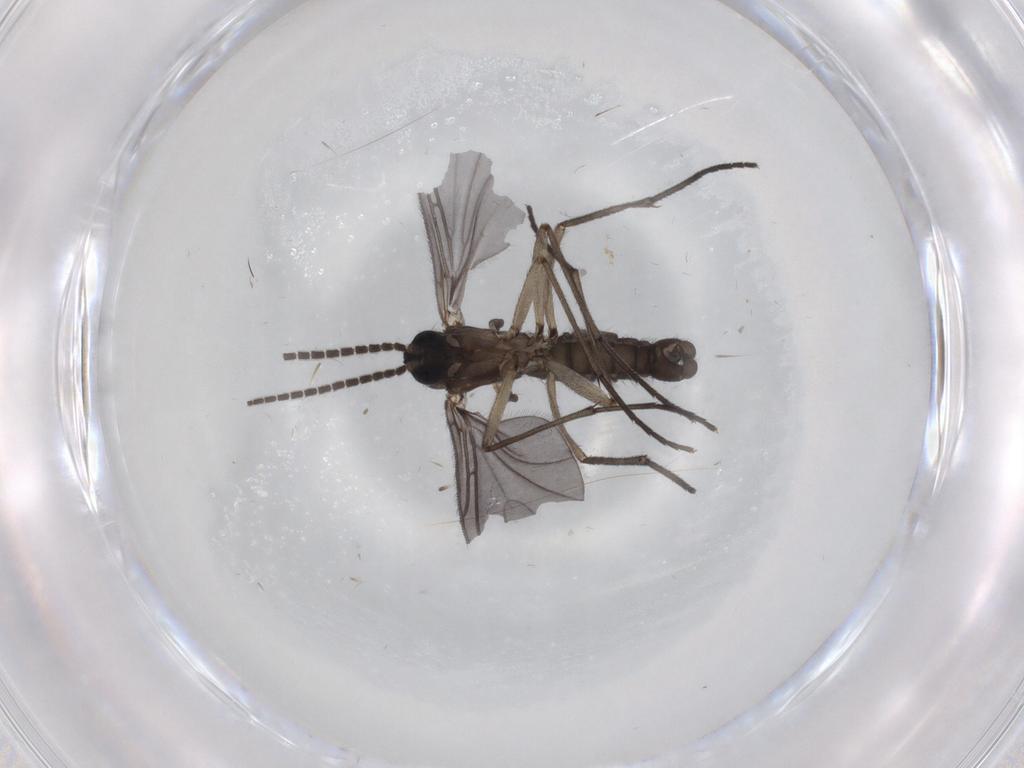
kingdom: Animalia
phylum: Arthropoda
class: Insecta
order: Diptera
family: Sciaridae
